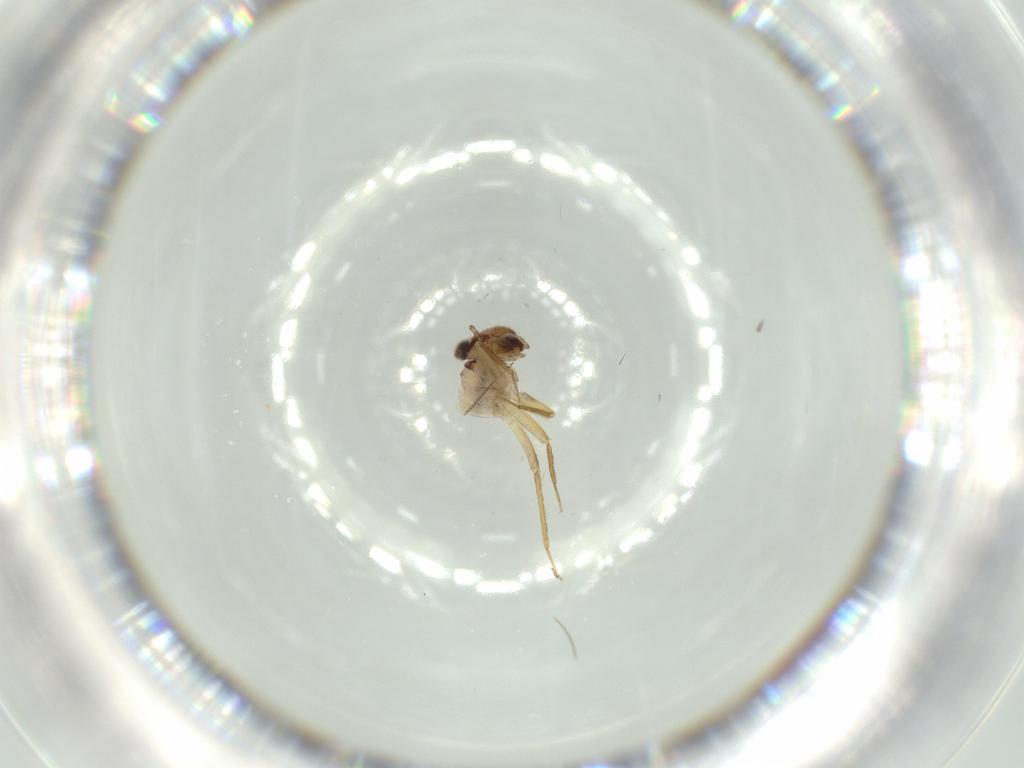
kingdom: Animalia
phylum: Arthropoda
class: Insecta
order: Diptera
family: Chironomidae
